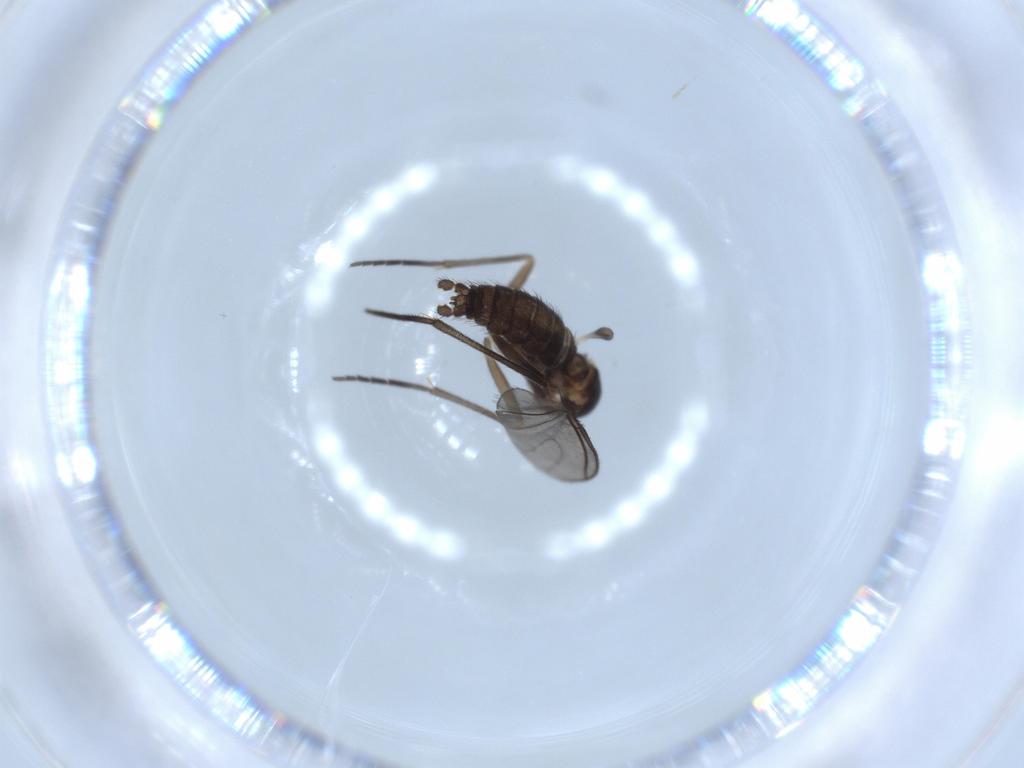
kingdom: Animalia
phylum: Arthropoda
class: Insecta
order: Diptera
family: Sciaridae
